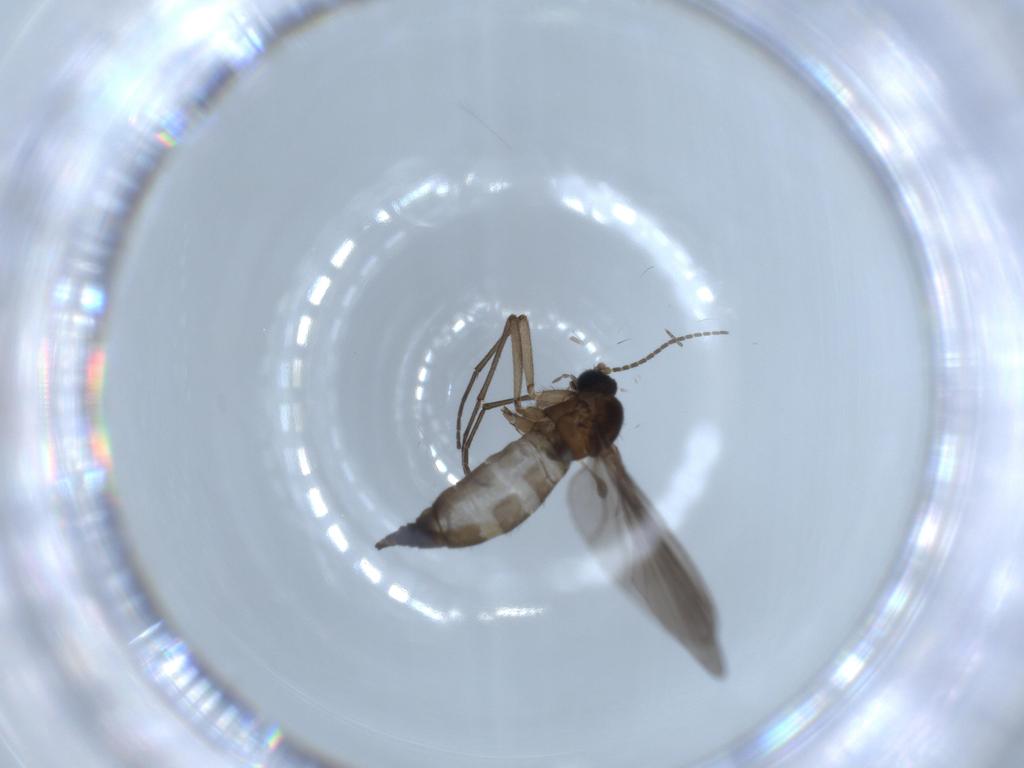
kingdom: Animalia
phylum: Arthropoda
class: Insecta
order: Diptera
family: Sciaridae
